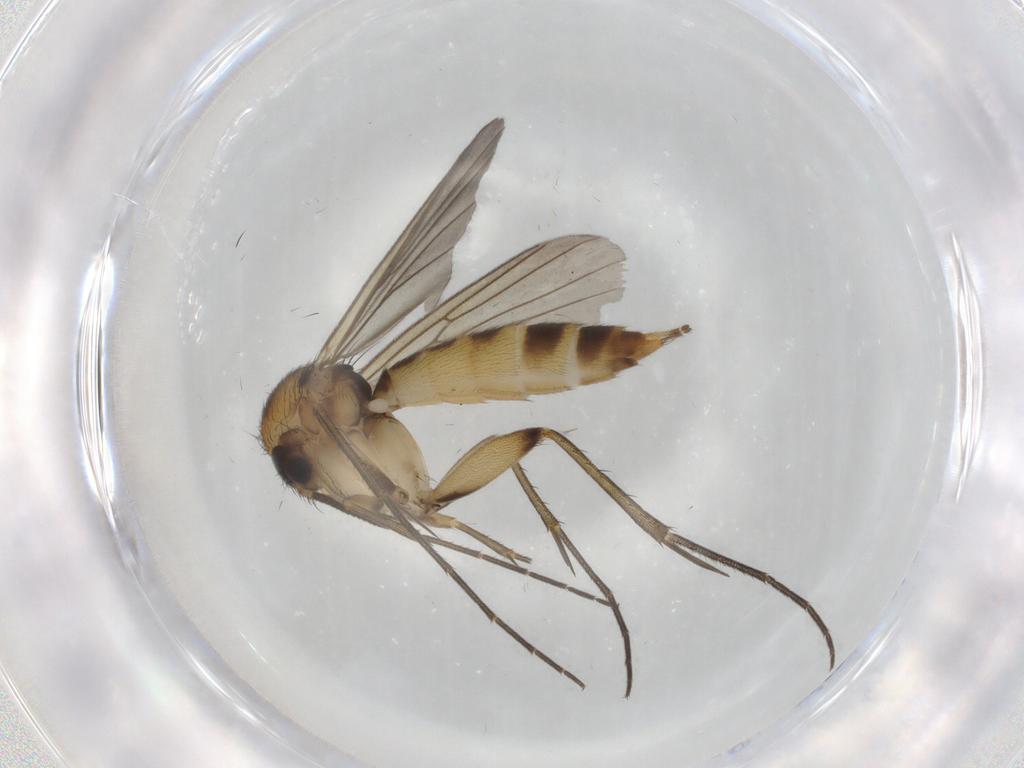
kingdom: Animalia
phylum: Arthropoda
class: Insecta
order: Diptera
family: Mycetophilidae
